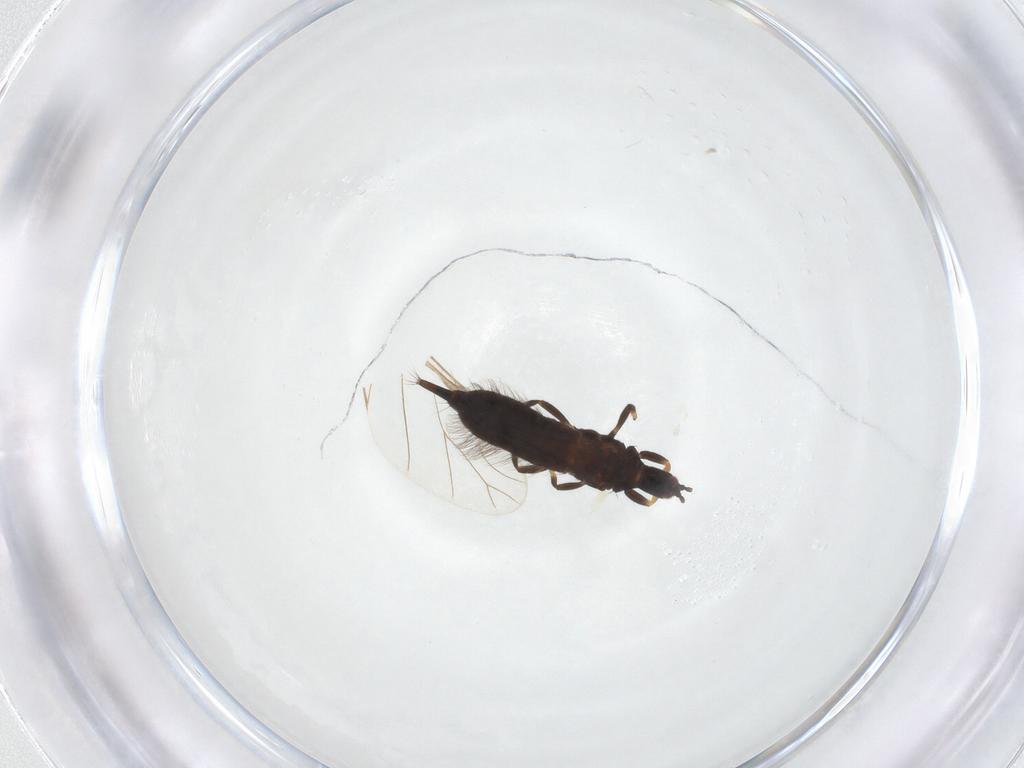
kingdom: Animalia
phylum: Arthropoda
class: Insecta
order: Thysanoptera
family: Phlaeothripidae
